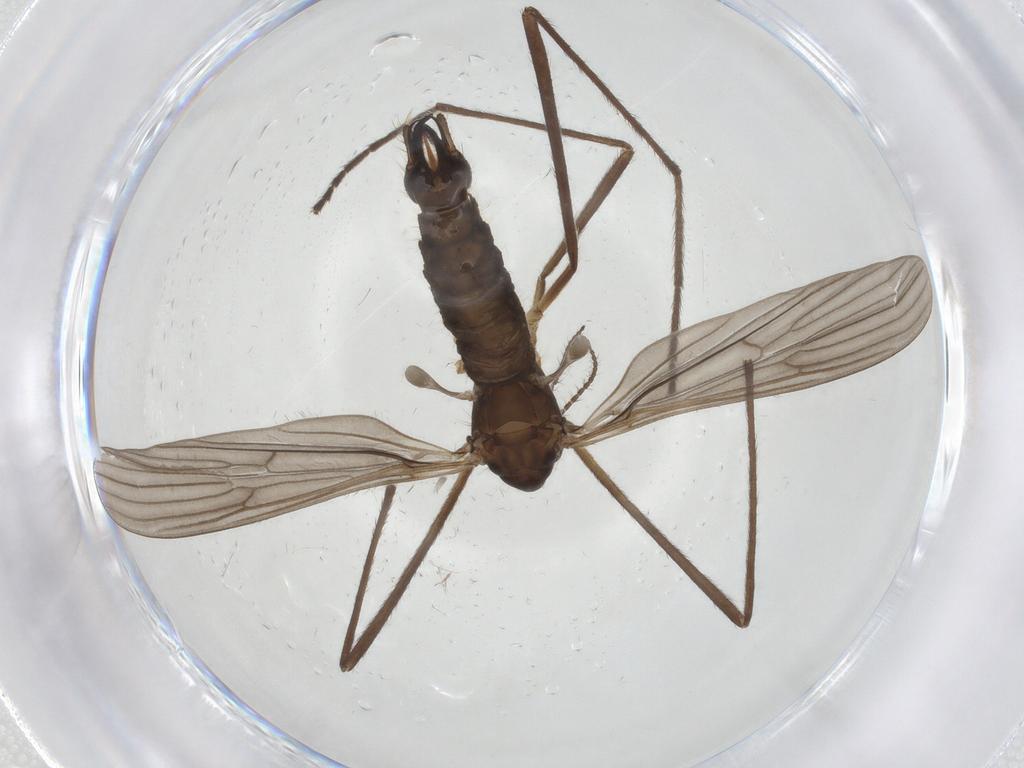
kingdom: Animalia
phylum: Arthropoda
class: Insecta
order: Diptera
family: Limoniidae
